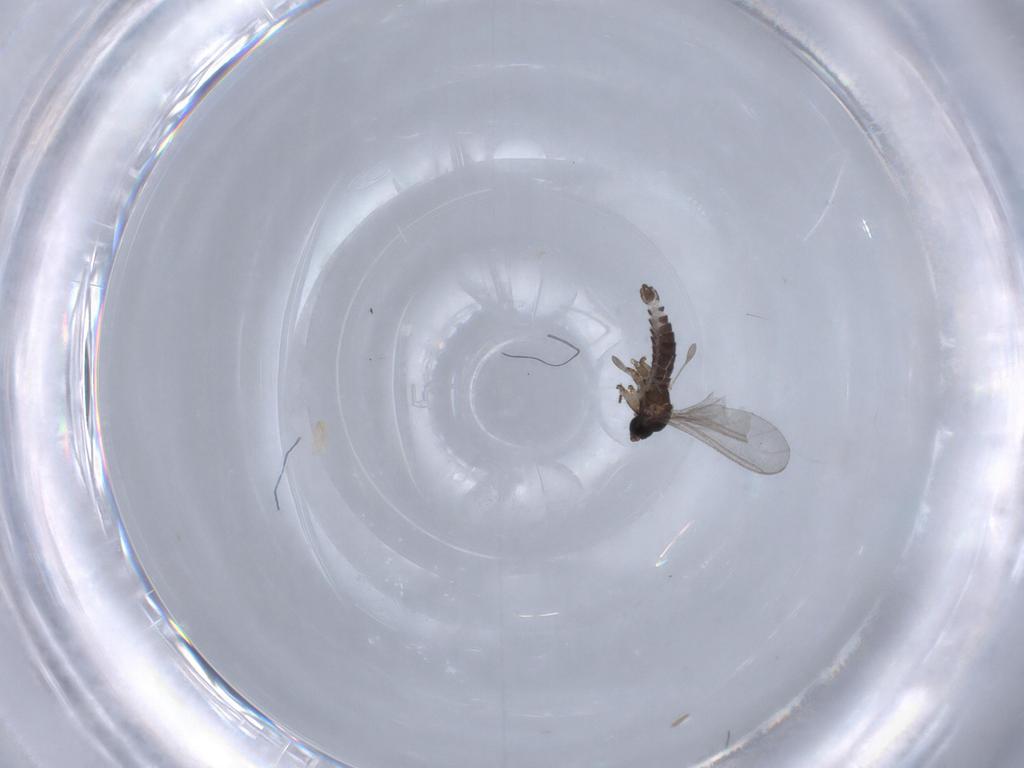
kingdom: Animalia
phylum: Arthropoda
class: Insecta
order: Diptera
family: Sciaridae
